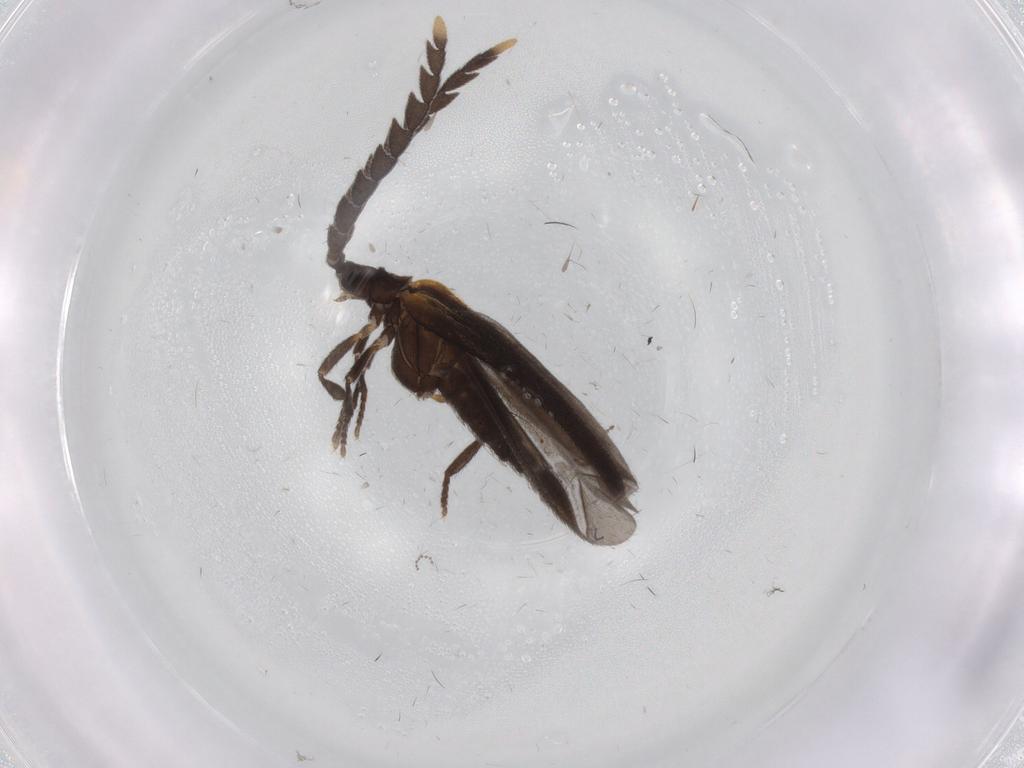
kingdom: Animalia
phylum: Arthropoda
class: Insecta
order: Coleoptera
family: Lycidae
